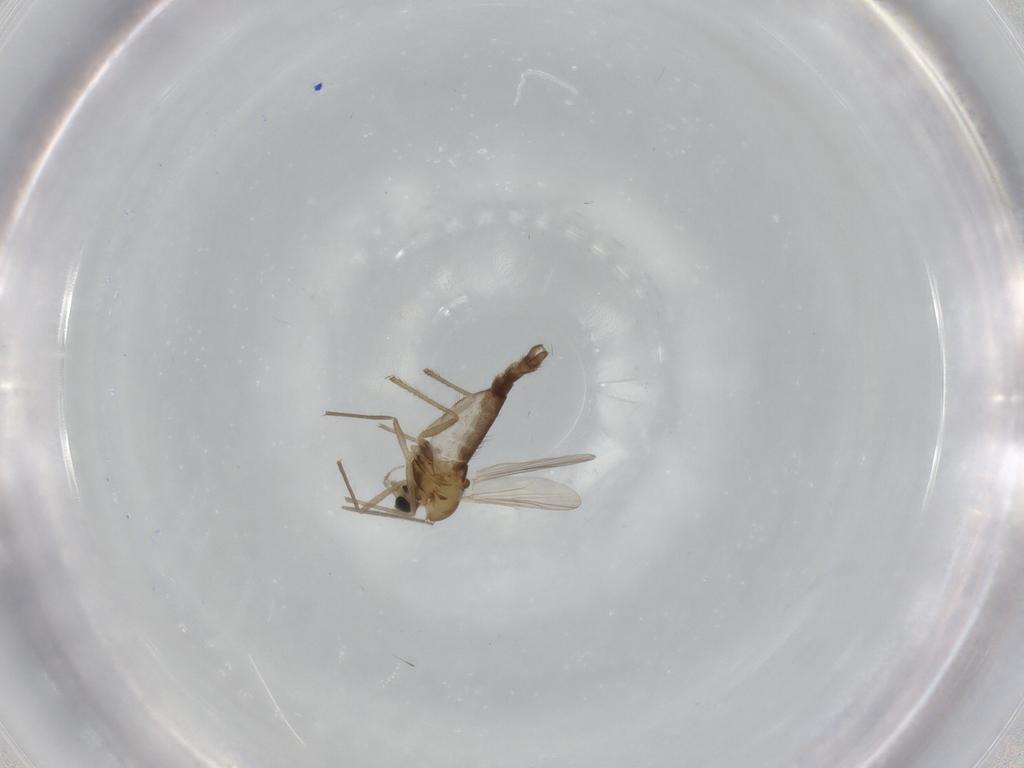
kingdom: Animalia
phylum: Arthropoda
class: Insecta
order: Diptera
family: Chironomidae
